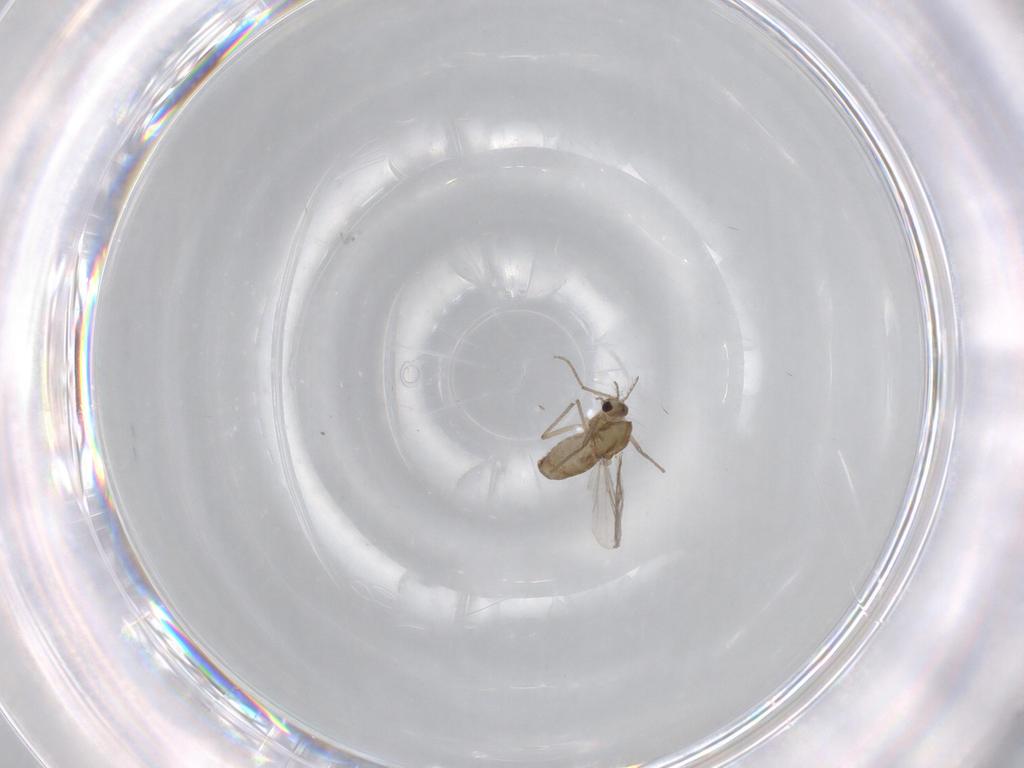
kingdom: Animalia
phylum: Arthropoda
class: Insecta
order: Diptera
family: Chironomidae
